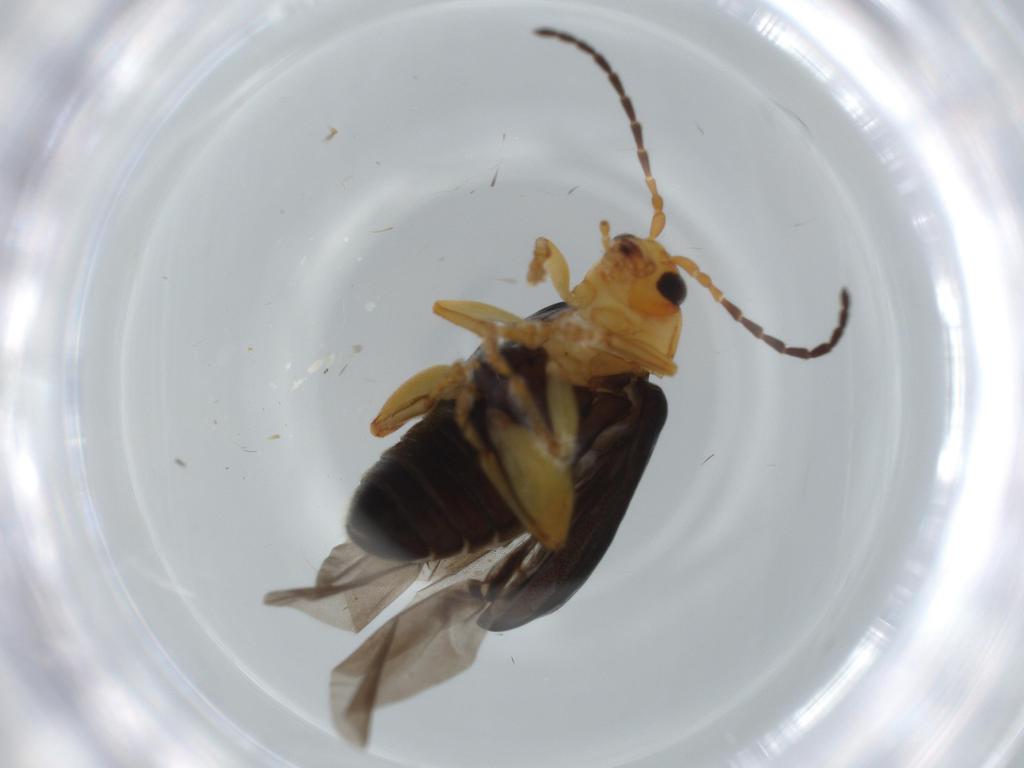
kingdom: Animalia
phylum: Arthropoda
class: Insecta
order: Coleoptera
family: Chrysomelidae
